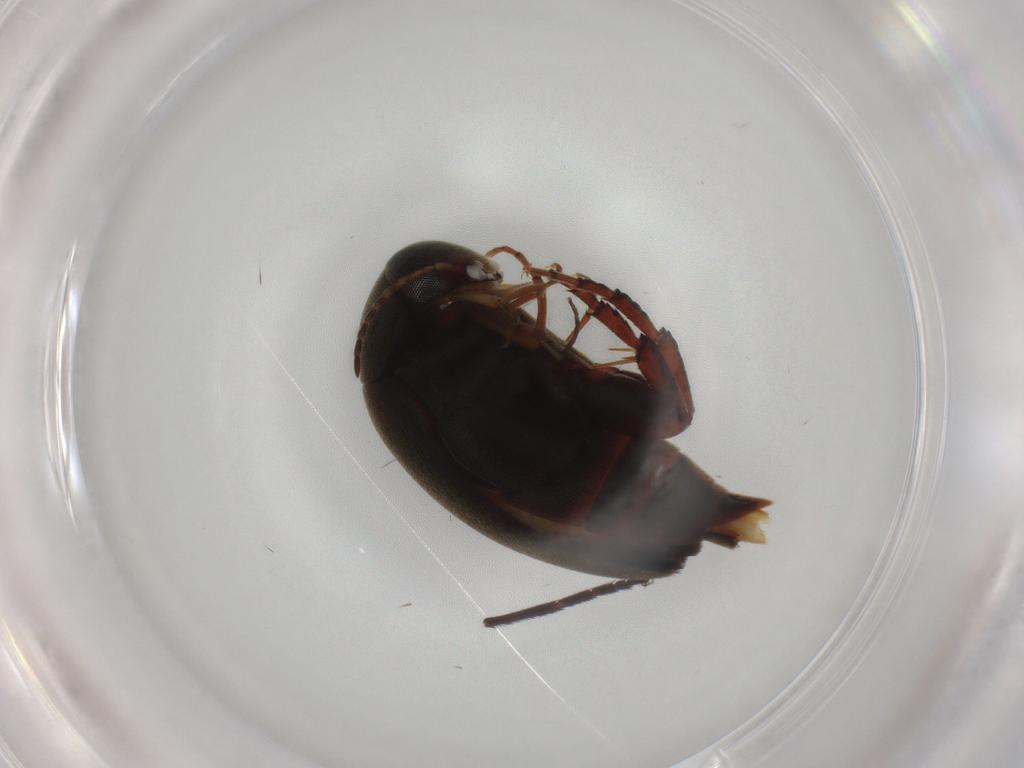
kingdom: Animalia
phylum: Arthropoda
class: Insecta
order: Coleoptera
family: Mordellidae
